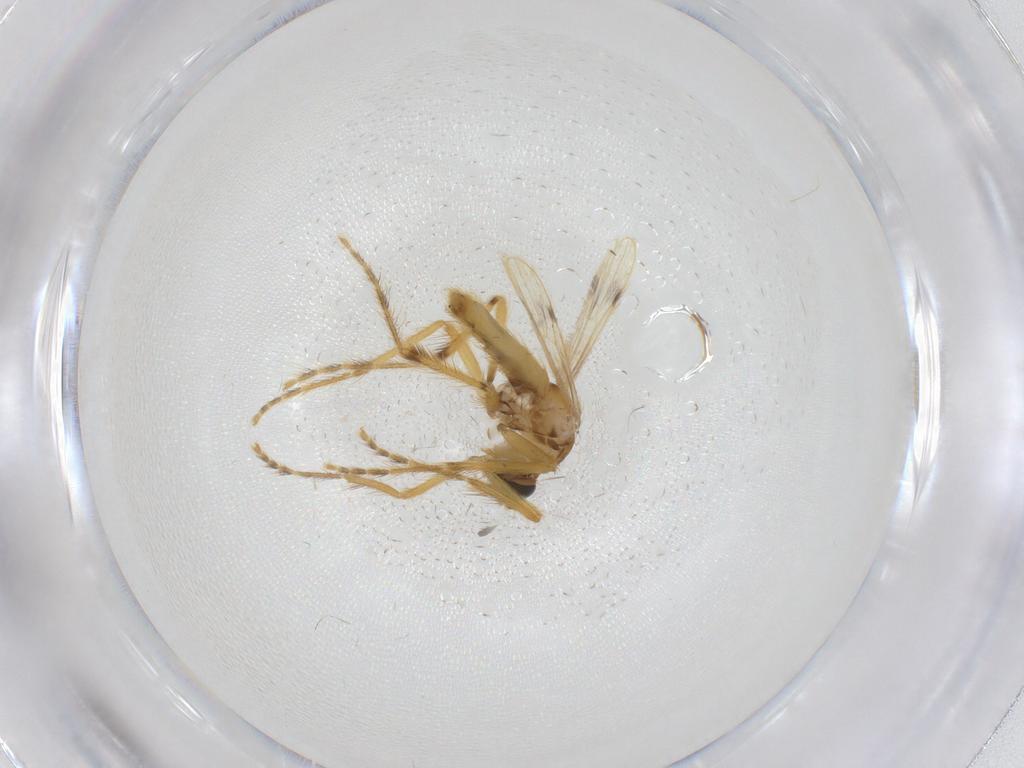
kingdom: Animalia
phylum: Arthropoda
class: Insecta
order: Diptera
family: Corethrellidae
